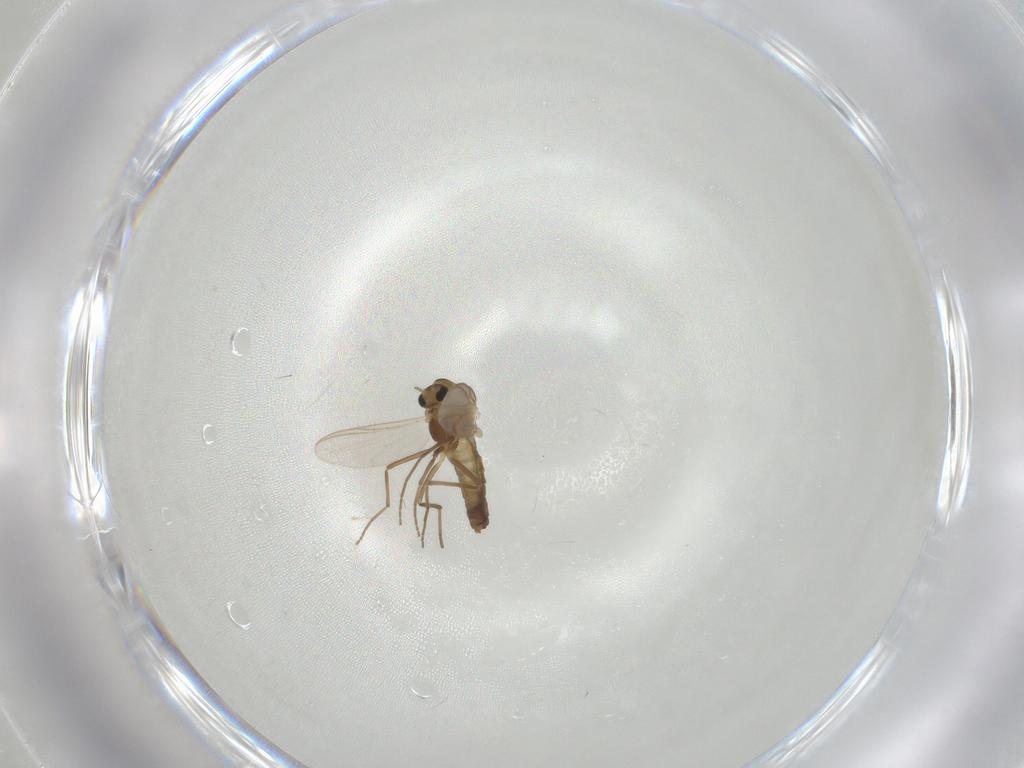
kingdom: Animalia
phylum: Arthropoda
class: Insecta
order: Diptera
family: Chironomidae
